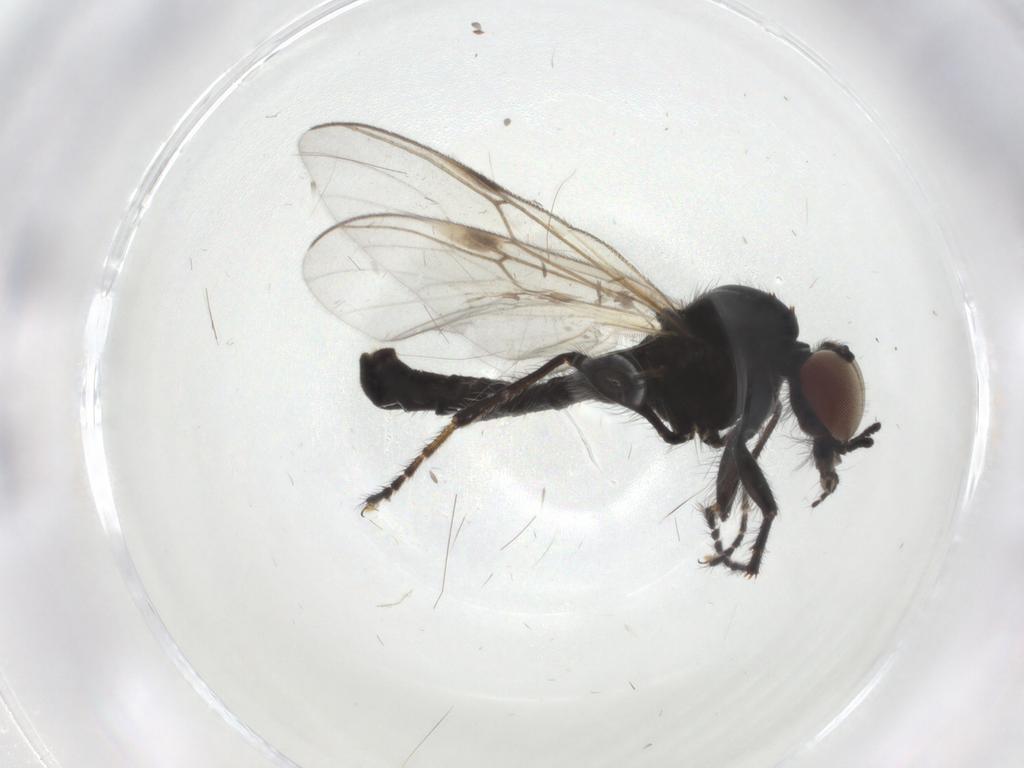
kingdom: Animalia
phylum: Arthropoda
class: Insecta
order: Diptera
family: Bibionidae
